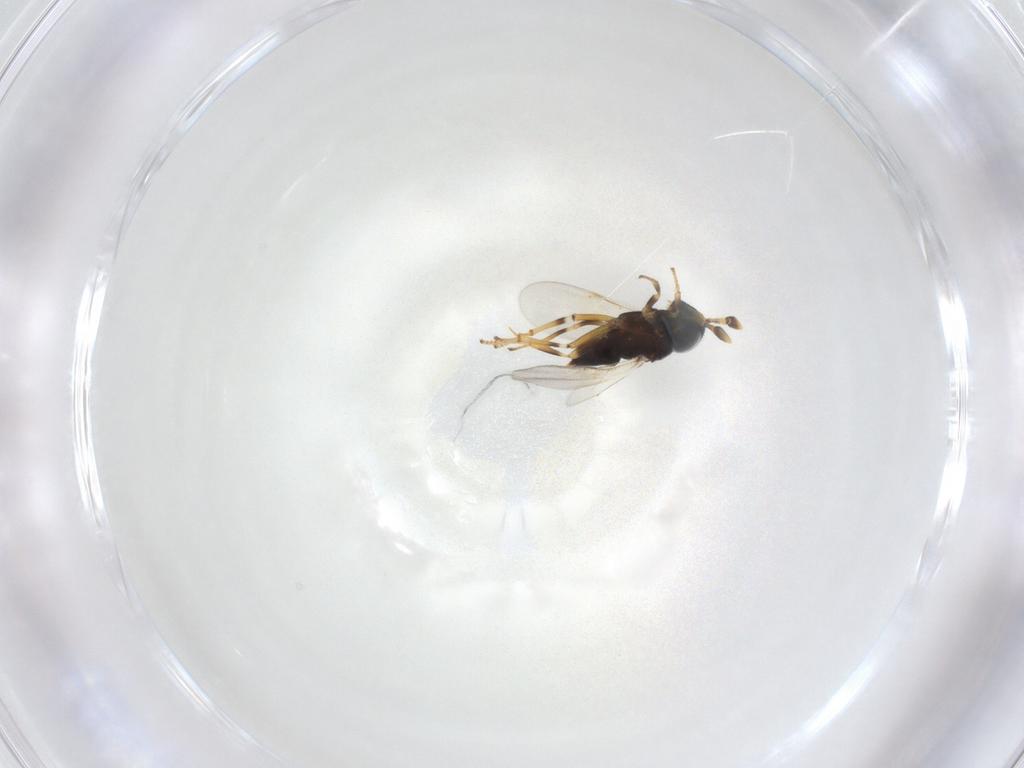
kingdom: Animalia
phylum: Arthropoda
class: Insecta
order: Hymenoptera
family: Encyrtidae
